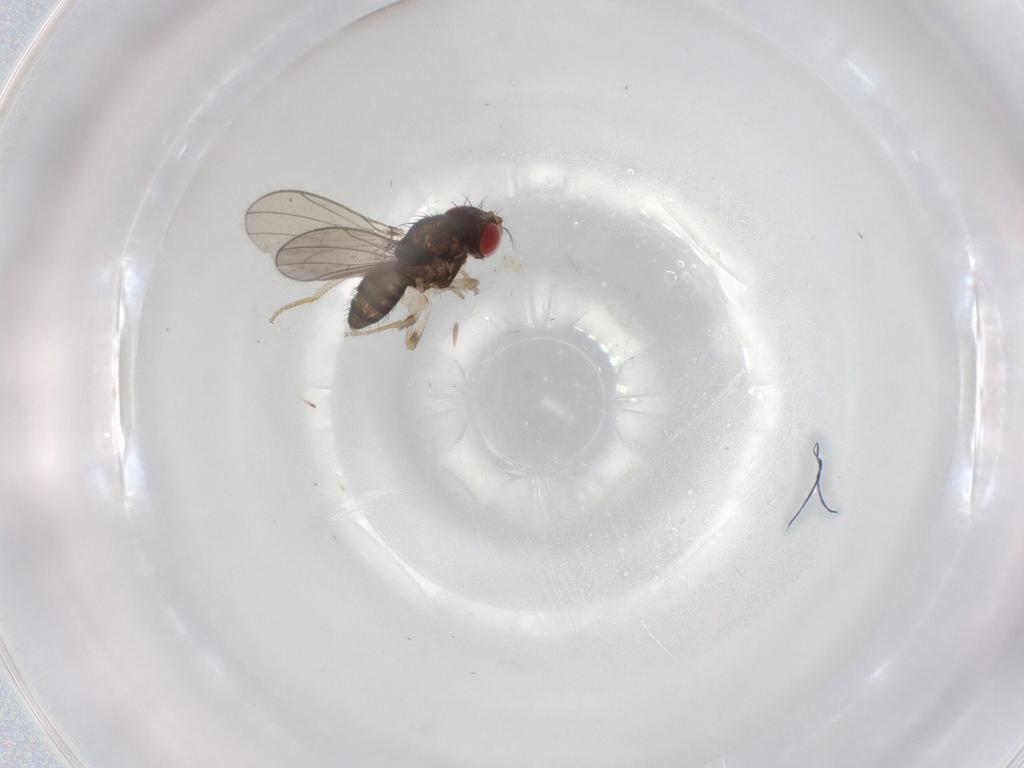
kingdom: Animalia
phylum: Arthropoda
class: Insecta
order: Diptera
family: Drosophilidae
